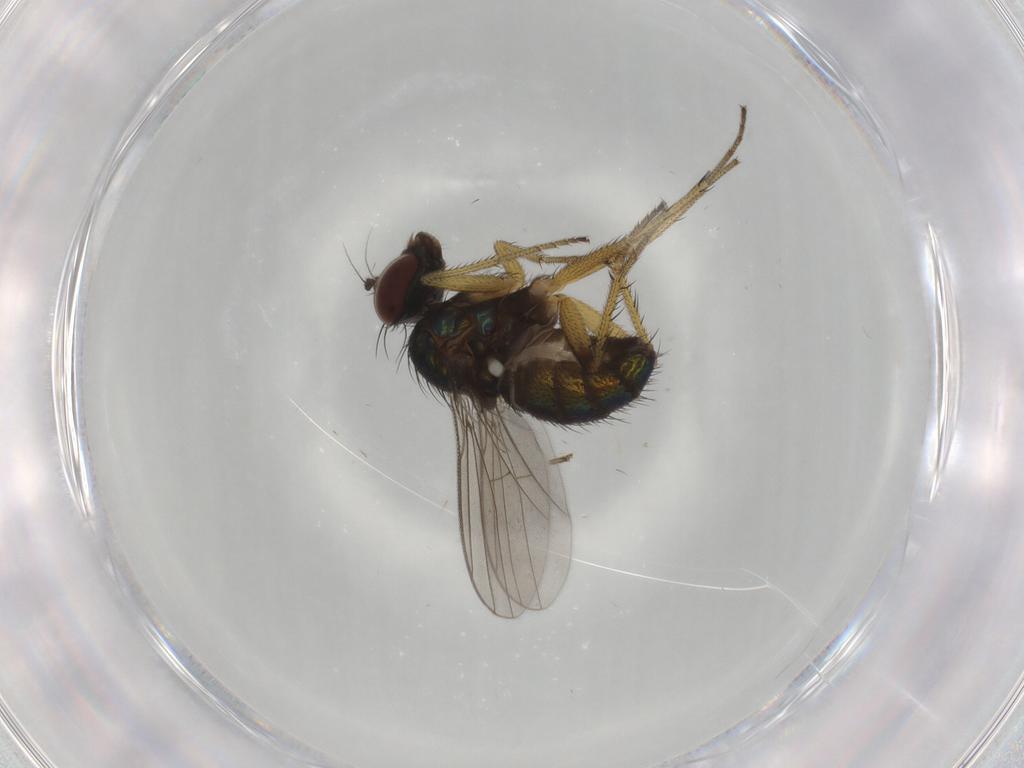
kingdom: Animalia
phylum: Arthropoda
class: Insecta
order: Diptera
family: Dolichopodidae
